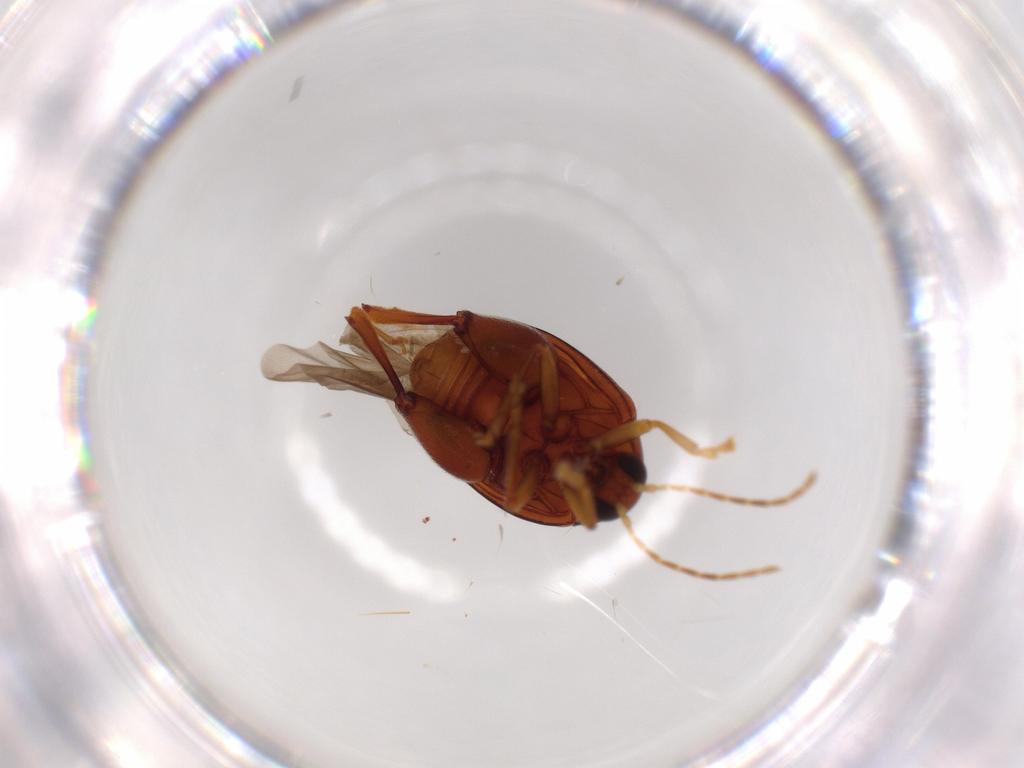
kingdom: Animalia
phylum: Arthropoda
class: Insecta
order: Coleoptera
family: Chrysomelidae
